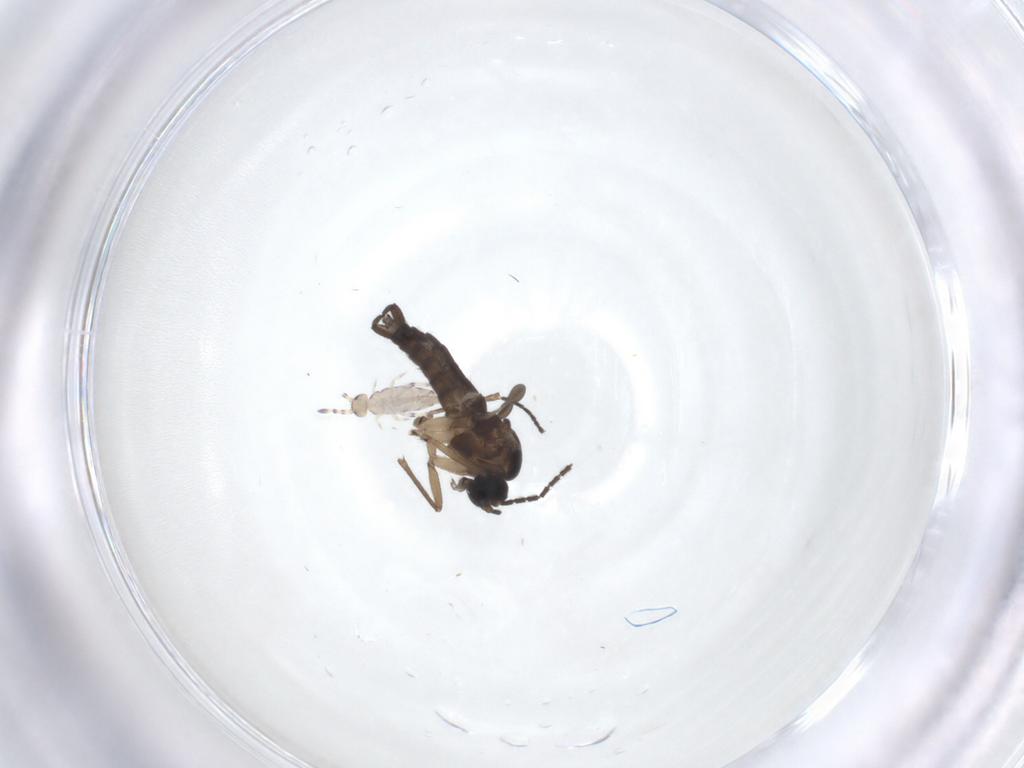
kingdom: Animalia
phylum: Arthropoda
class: Insecta
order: Diptera
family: Sciaridae
